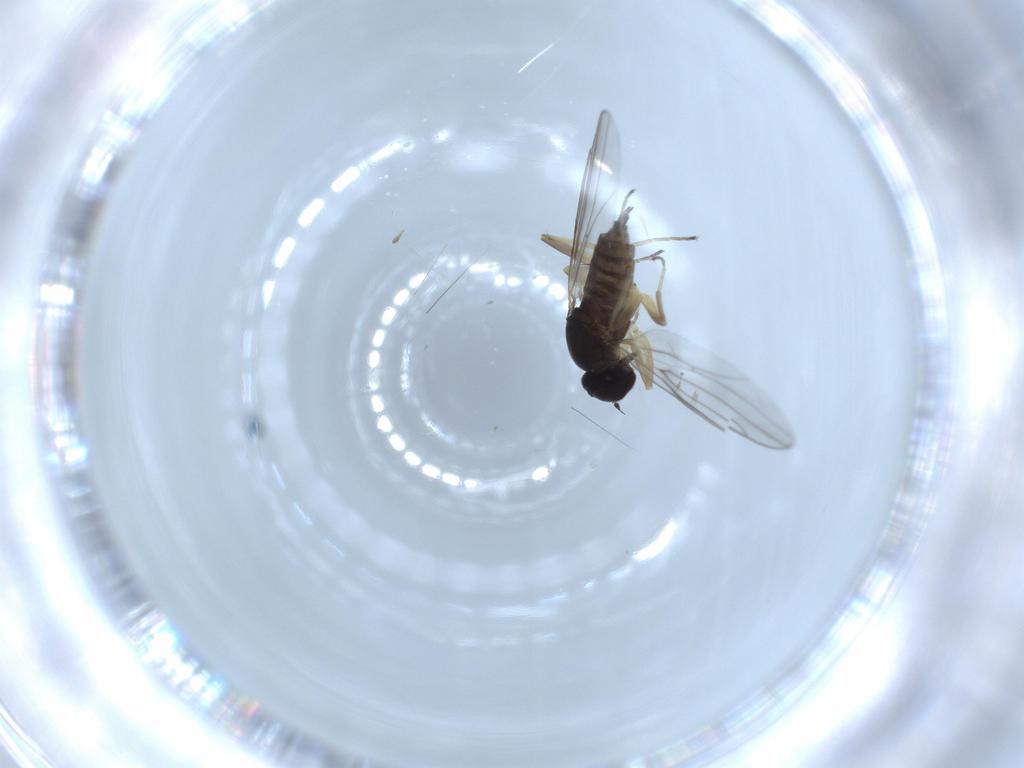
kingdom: Animalia
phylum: Arthropoda
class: Insecta
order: Diptera
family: Hybotidae
